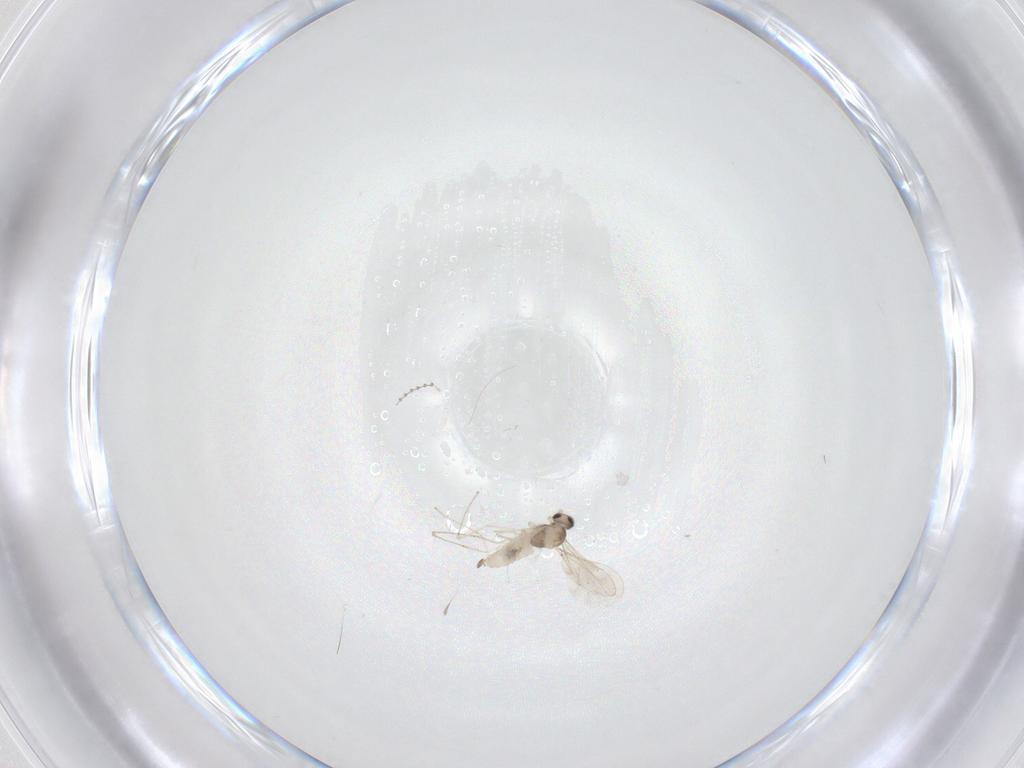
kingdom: Animalia
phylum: Arthropoda
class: Insecta
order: Diptera
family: Cecidomyiidae
